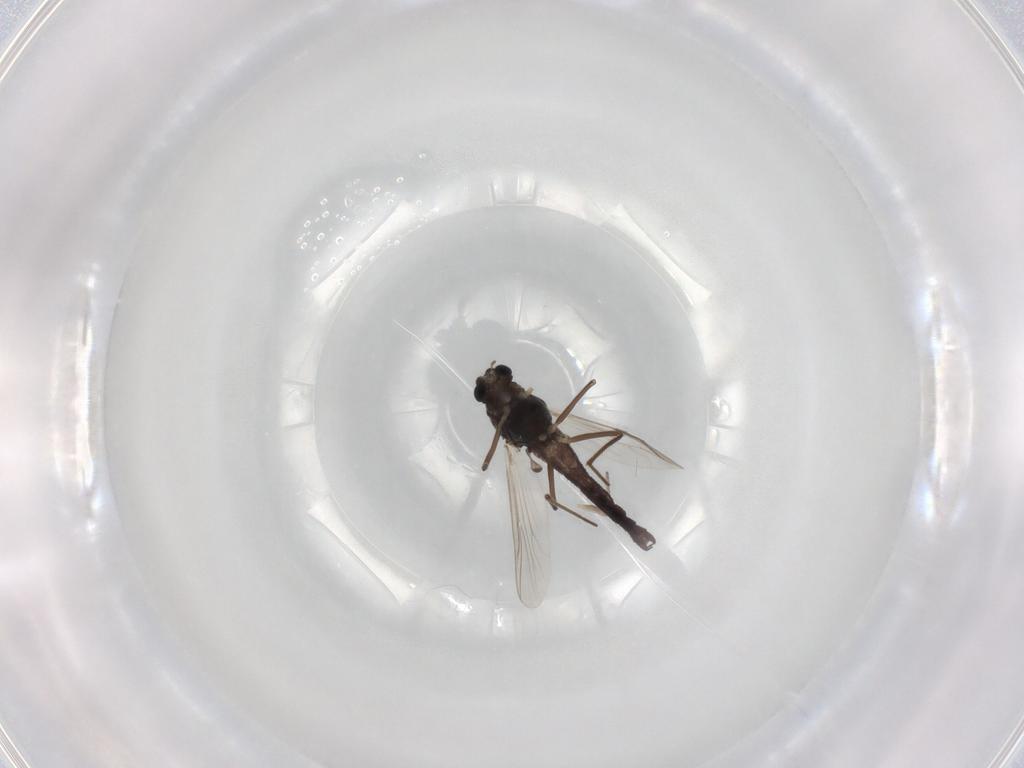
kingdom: Animalia
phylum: Arthropoda
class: Insecta
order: Diptera
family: Chironomidae
